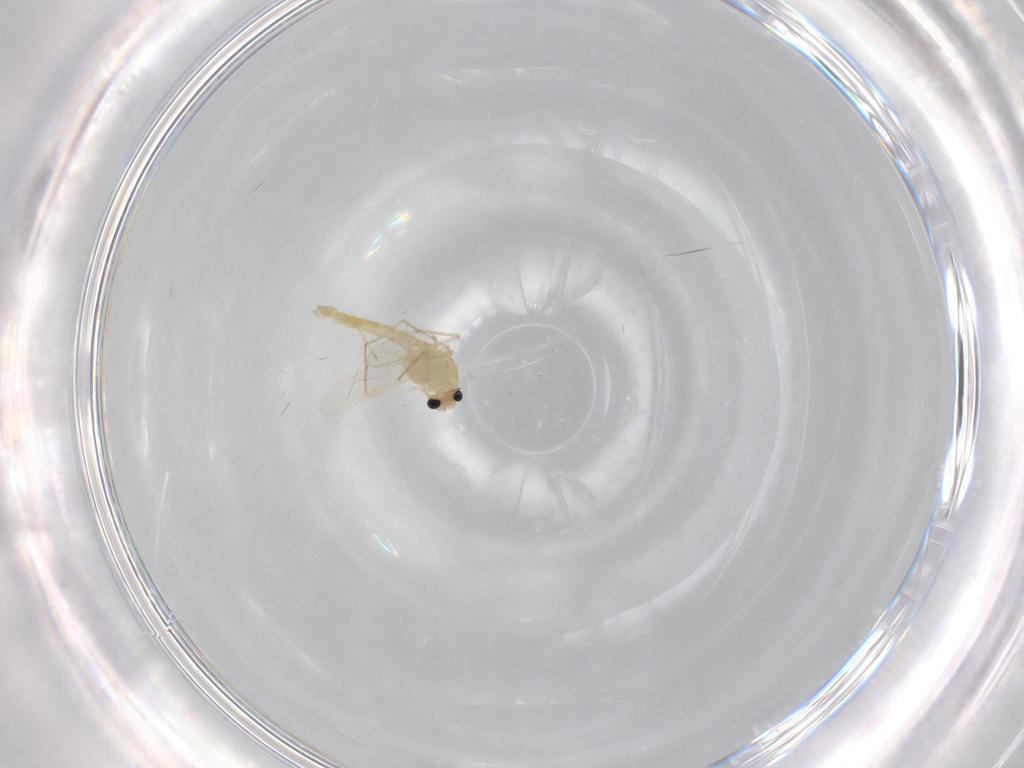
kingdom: Animalia
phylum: Arthropoda
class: Insecta
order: Diptera
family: Chironomidae
